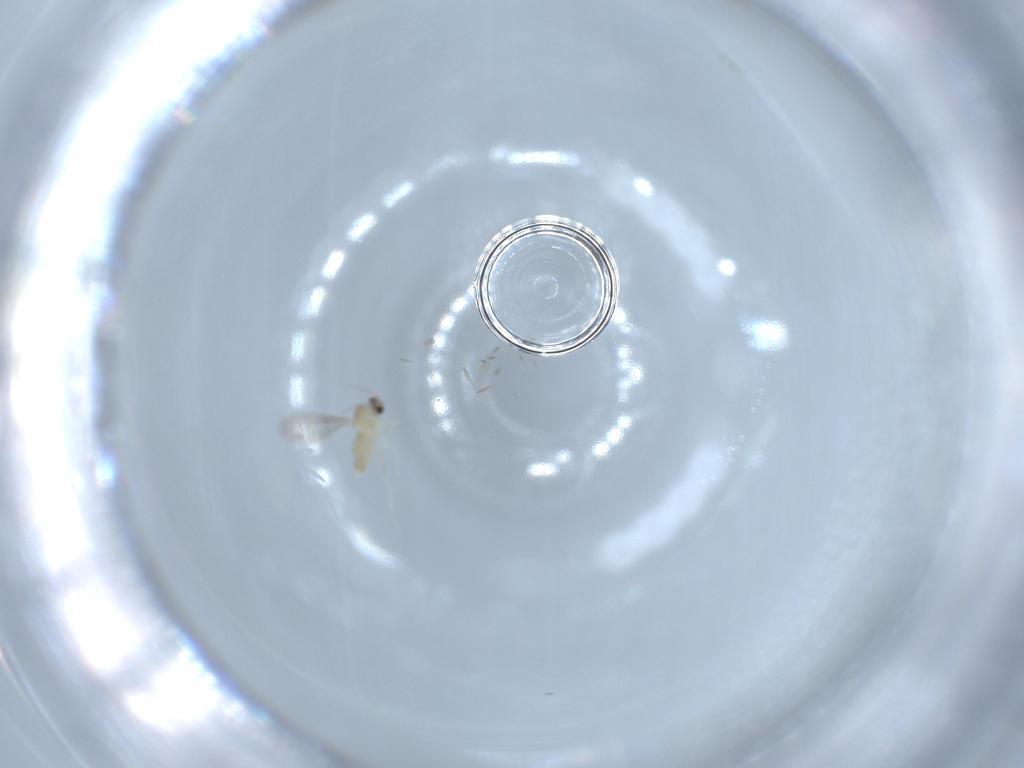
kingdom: Animalia
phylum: Arthropoda
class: Insecta
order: Diptera
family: Cecidomyiidae
